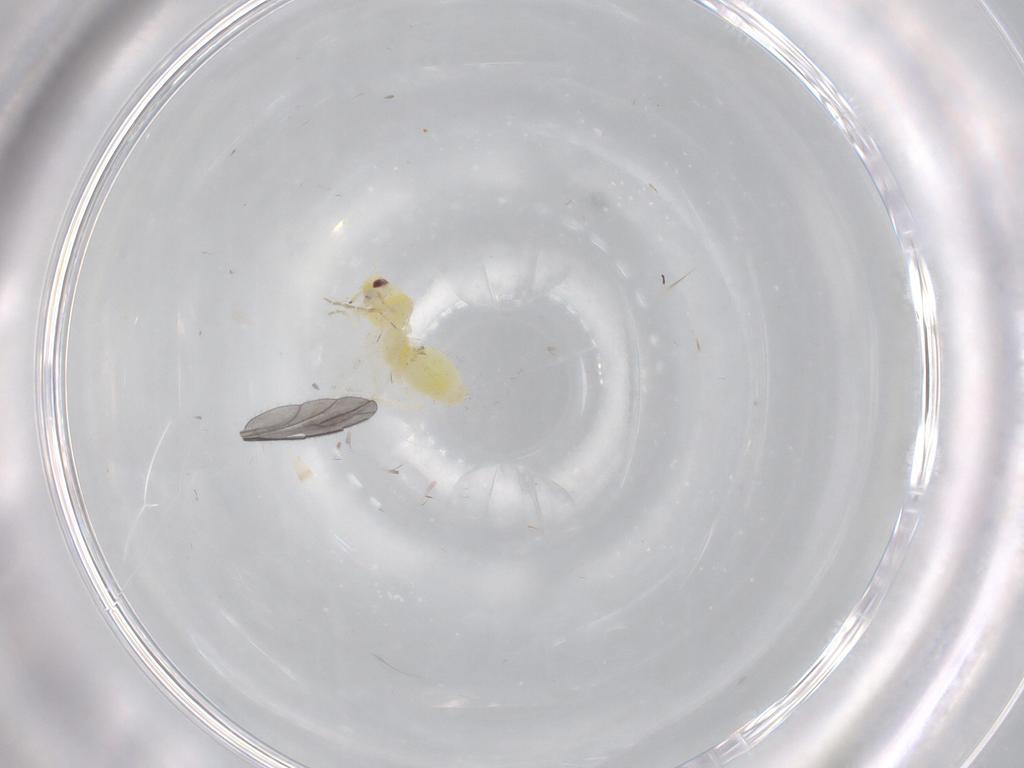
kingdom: Animalia
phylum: Arthropoda
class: Insecta
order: Hemiptera
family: Aleyrodidae
